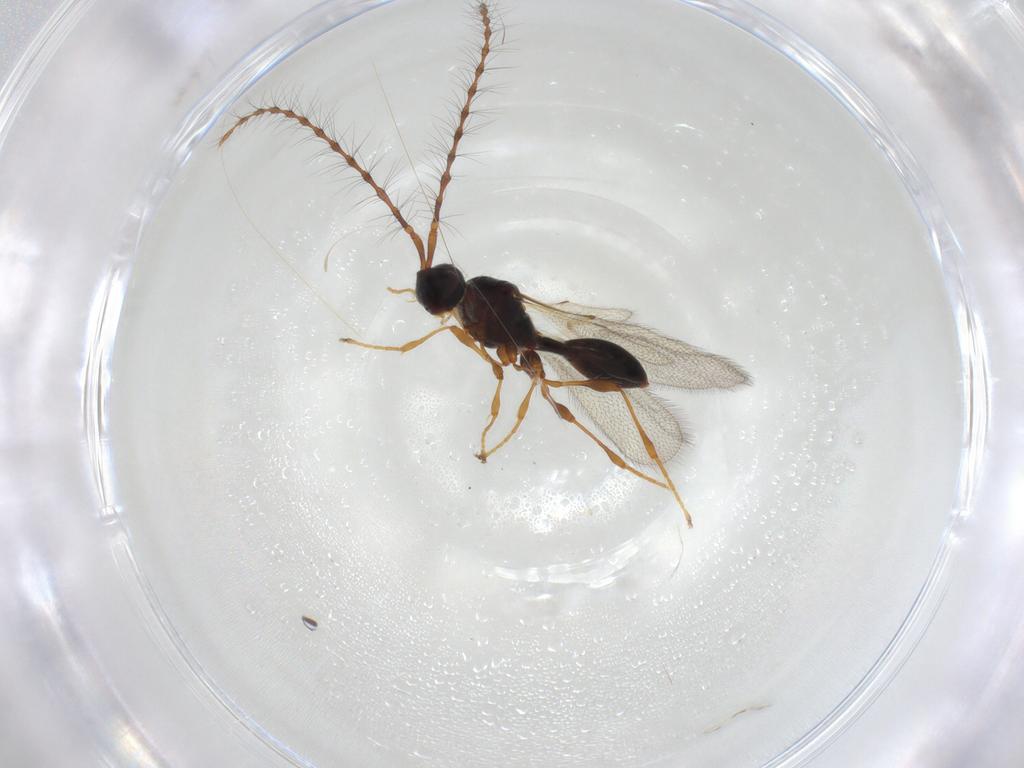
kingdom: Animalia
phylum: Arthropoda
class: Insecta
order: Hymenoptera
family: Diapriidae
